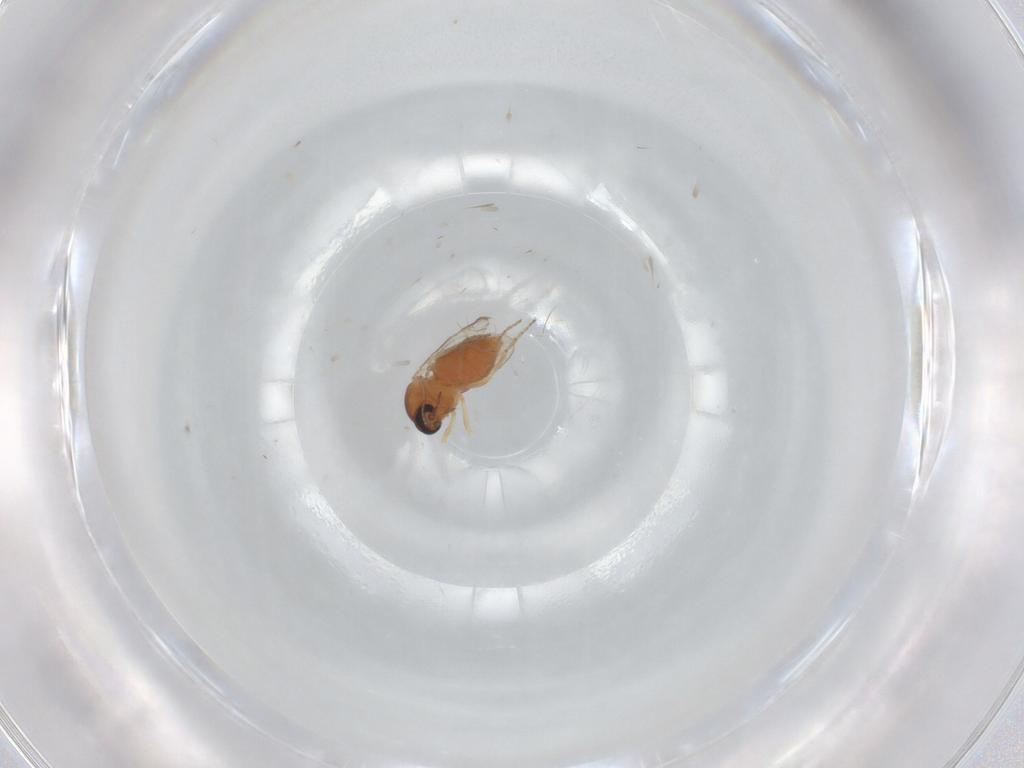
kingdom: Animalia
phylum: Arthropoda
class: Insecta
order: Diptera
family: Ceratopogonidae
